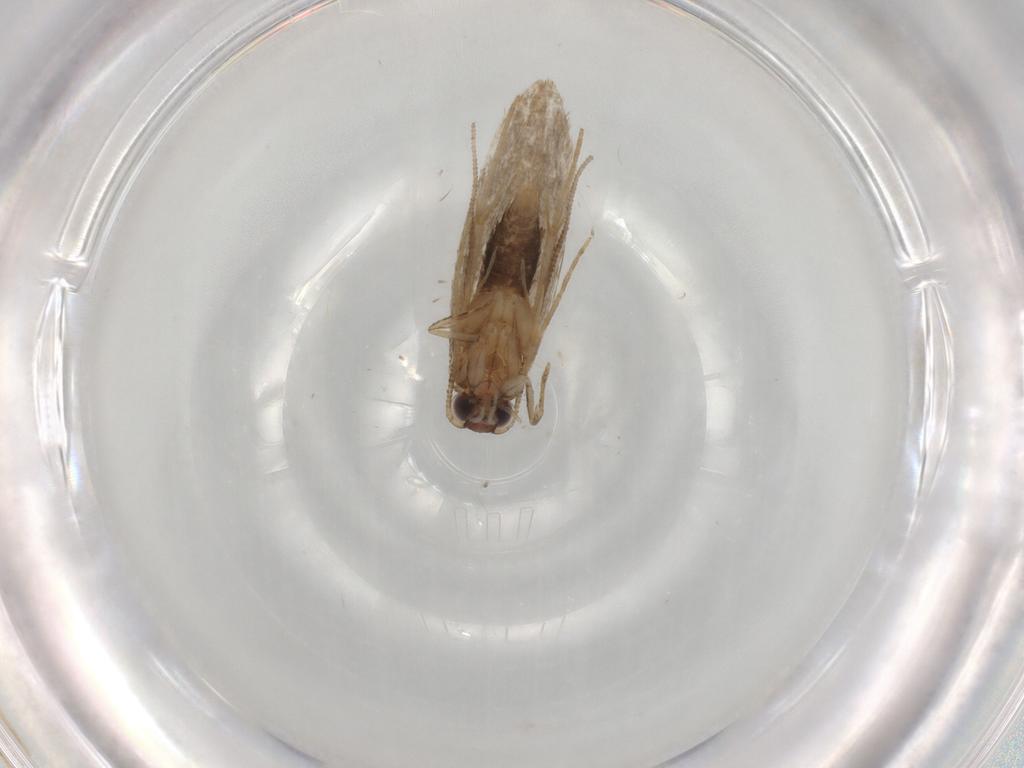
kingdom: Animalia
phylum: Arthropoda
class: Insecta
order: Lepidoptera
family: Tineidae
